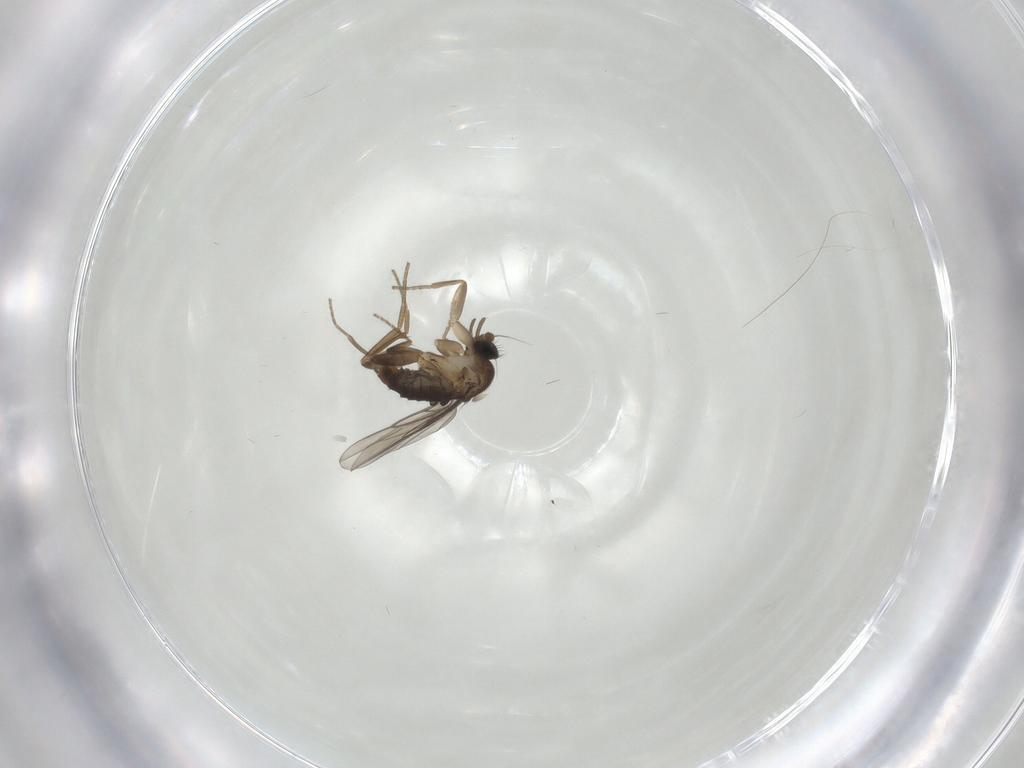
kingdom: Animalia
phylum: Arthropoda
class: Insecta
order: Diptera
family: Phoridae
